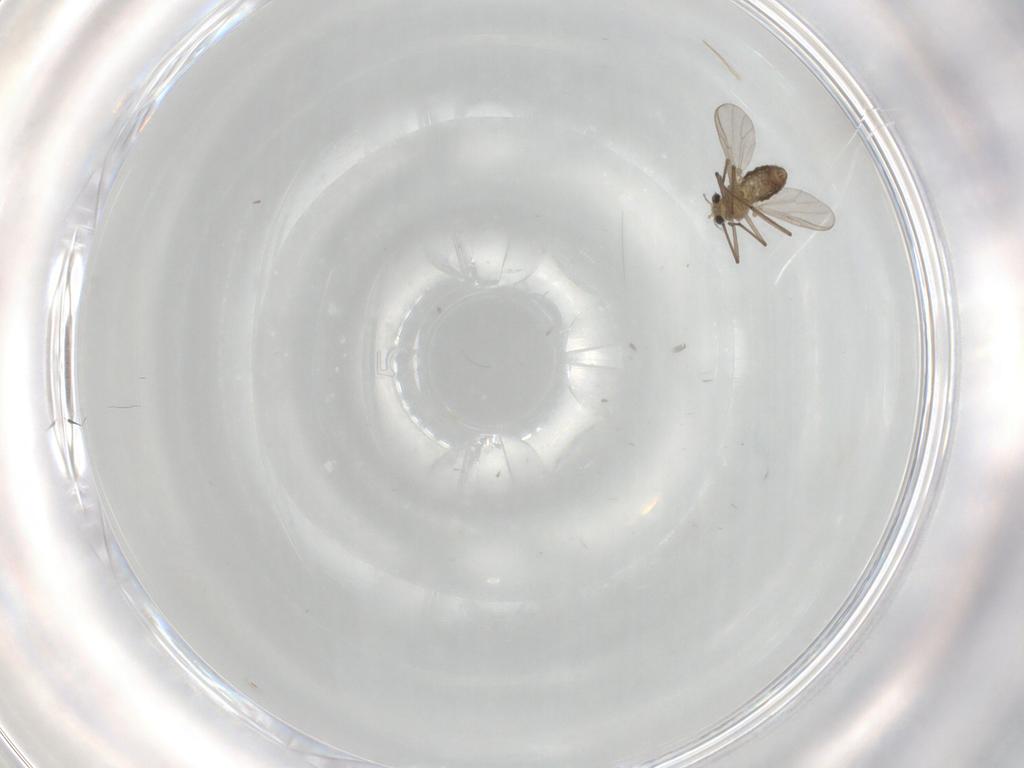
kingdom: Animalia
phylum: Arthropoda
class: Insecta
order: Diptera
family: Chironomidae
